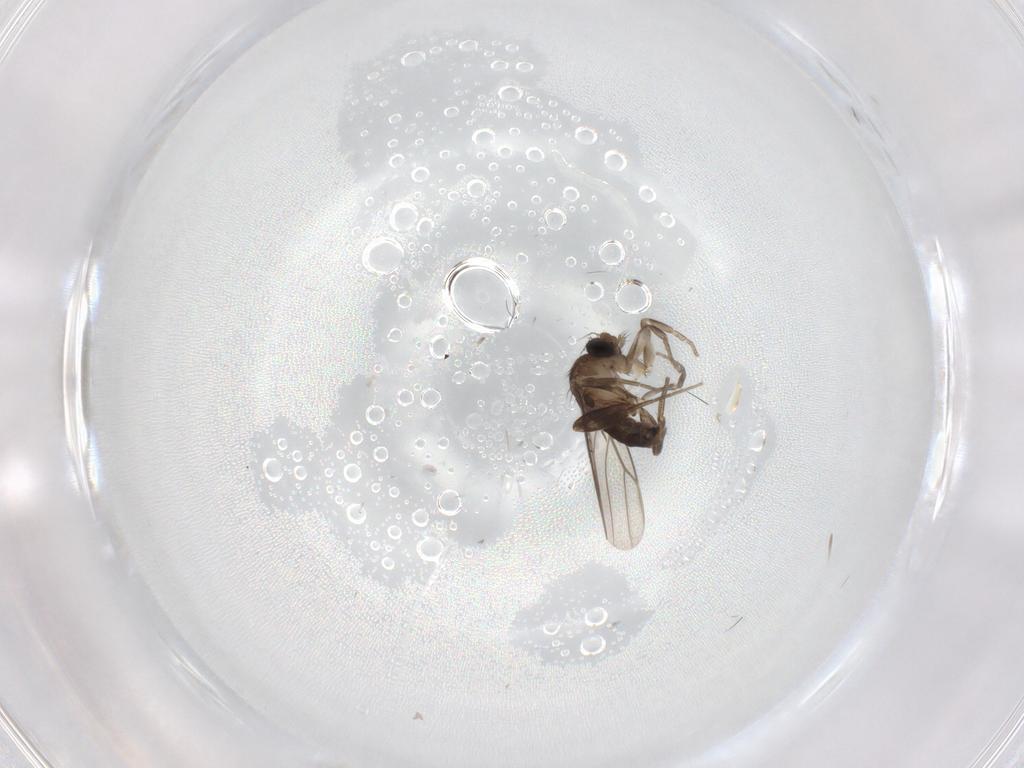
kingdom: Animalia
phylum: Arthropoda
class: Insecta
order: Diptera
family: Phoridae
